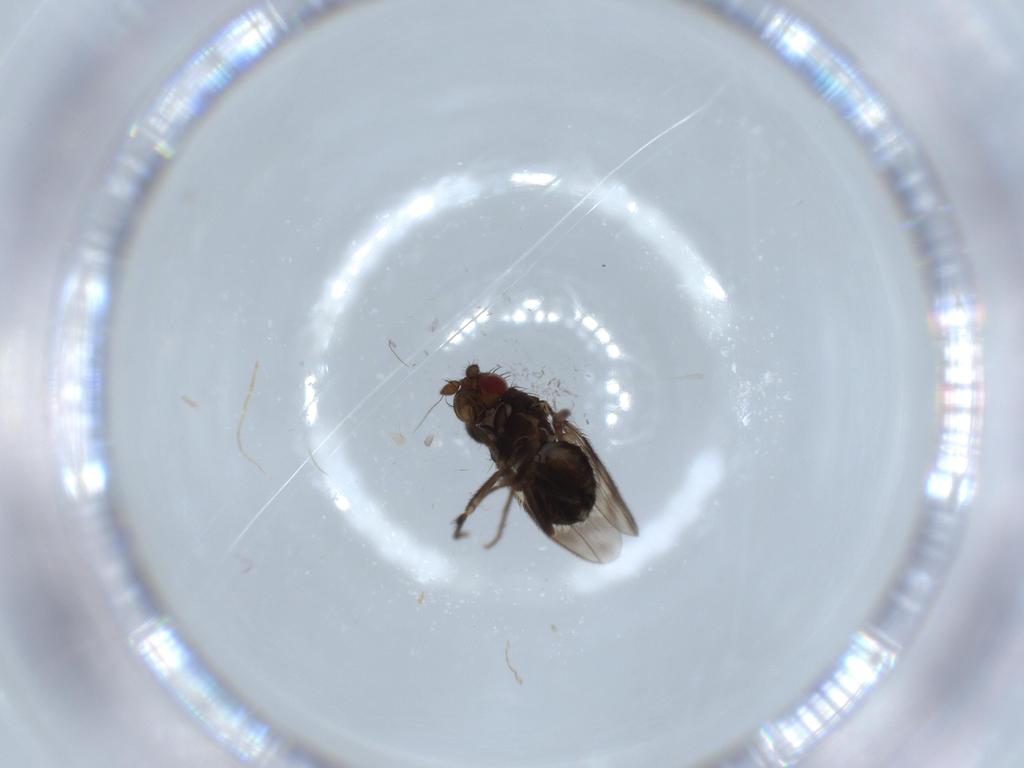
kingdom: Animalia
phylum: Arthropoda
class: Insecta
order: Diptera
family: Sphaeroceridae
